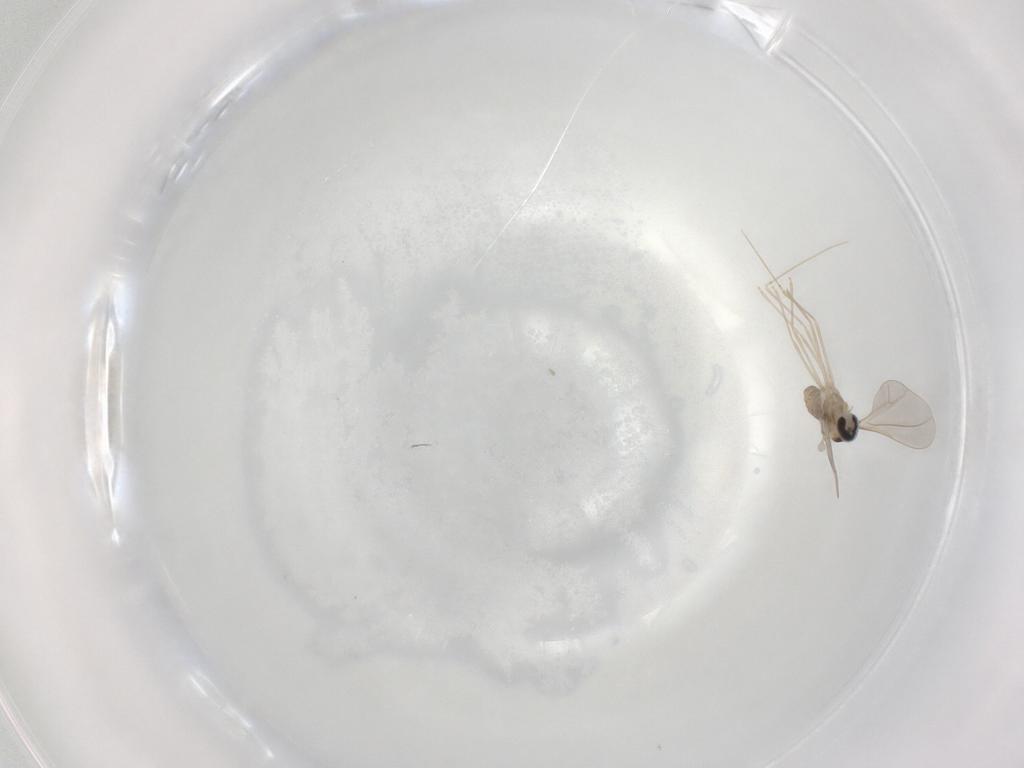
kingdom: Animalia
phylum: Arthropoda
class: Insecta
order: Diptera
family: Cecidomyiidae
